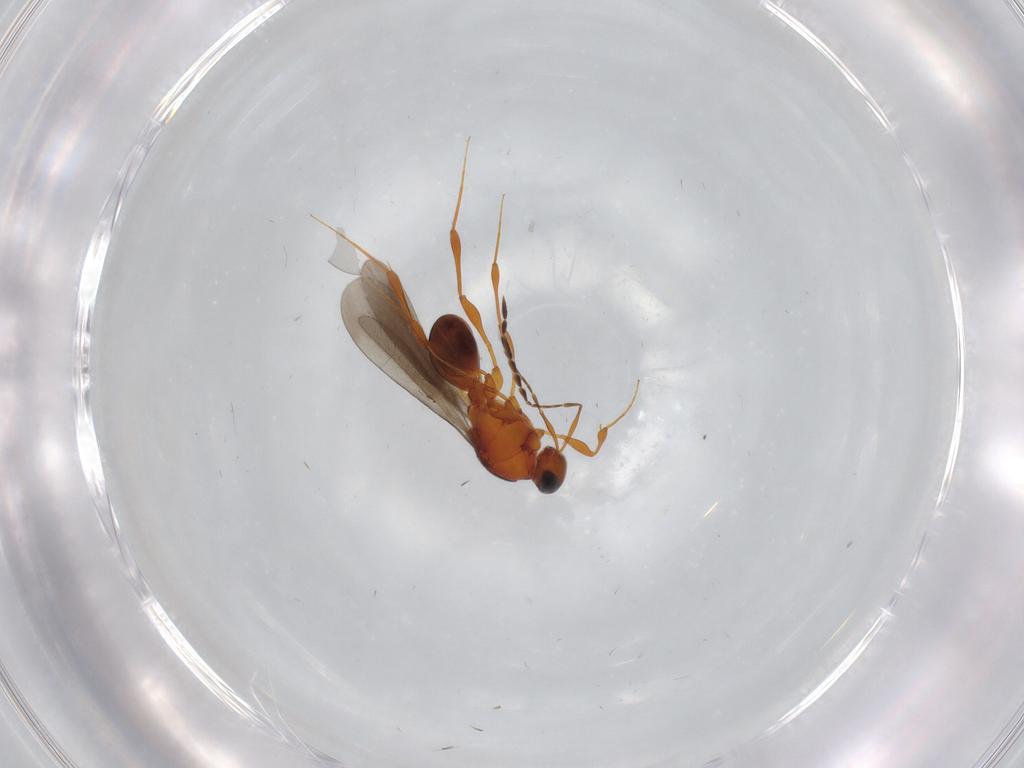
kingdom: Animalia
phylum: Arthropoda
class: Insecta
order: Hymenoptera
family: Platygastridae
